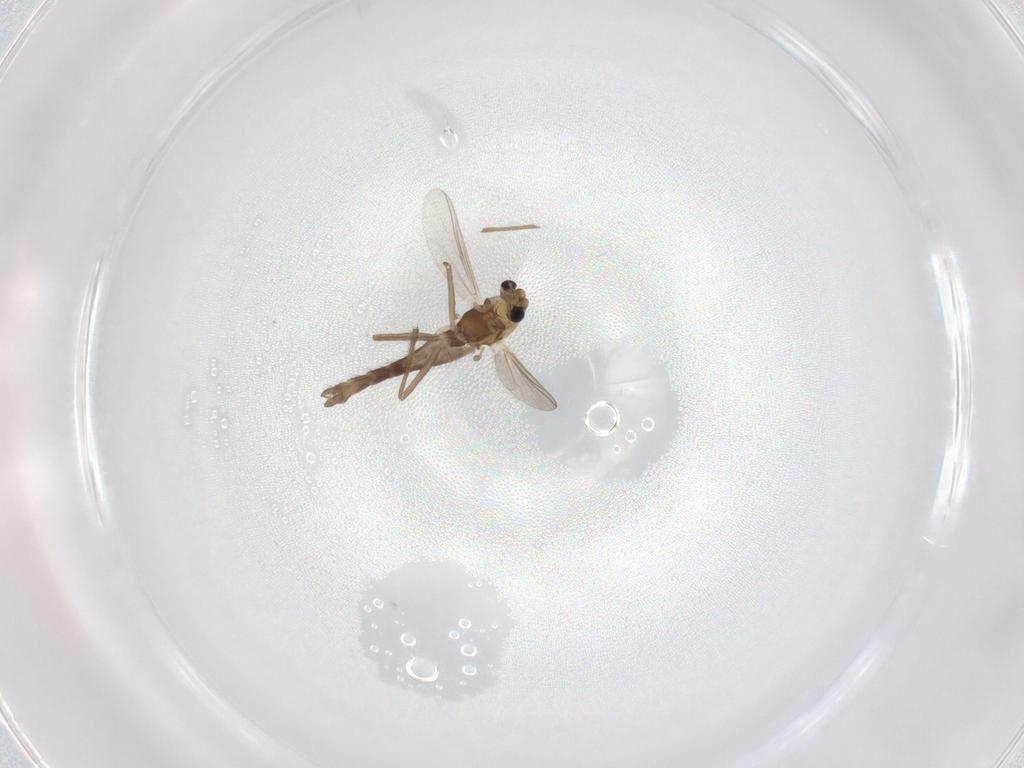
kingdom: Animalia
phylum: Arthropoda
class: Insecta
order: Diptera
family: Chironomidae
